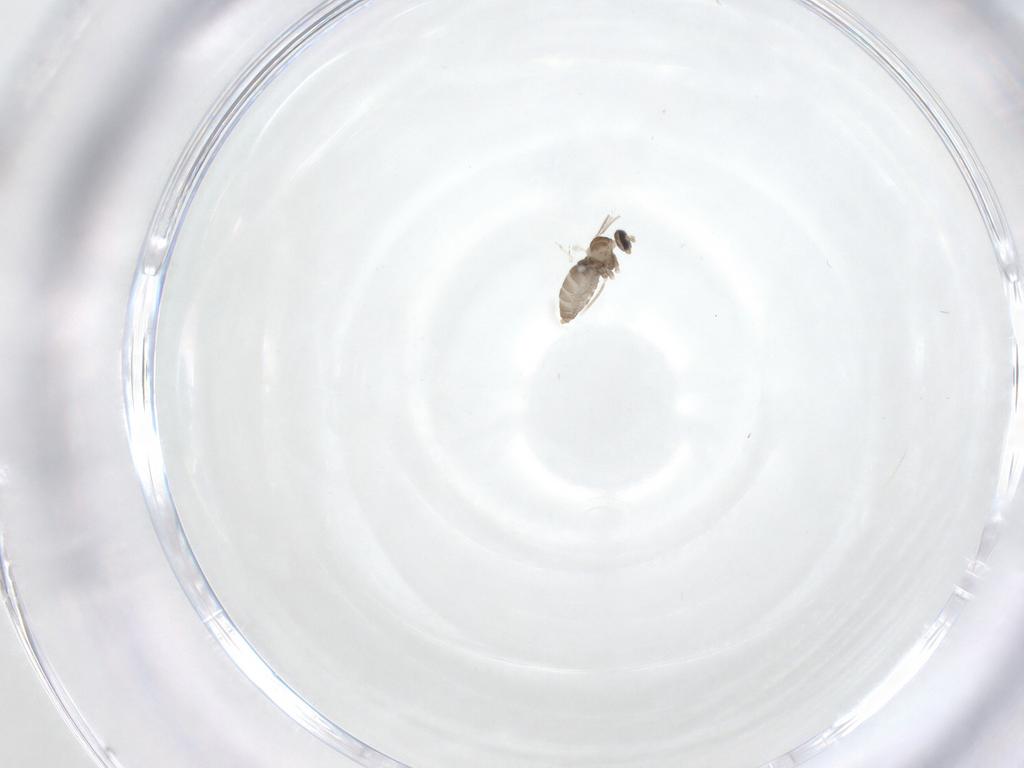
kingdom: Animalia
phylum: Arthropoda
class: Insecta
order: Diptera
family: Cecidomyiidae
